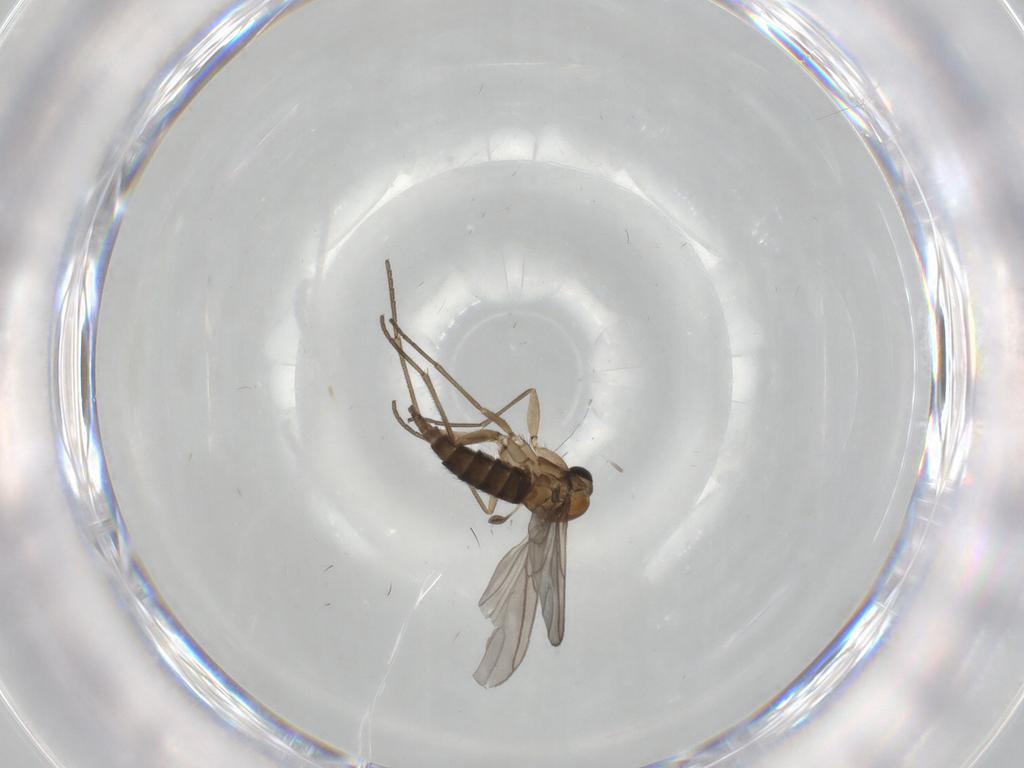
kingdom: Animalia
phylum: Arthropoda
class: Insecta
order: Diptera
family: Sciaridae
